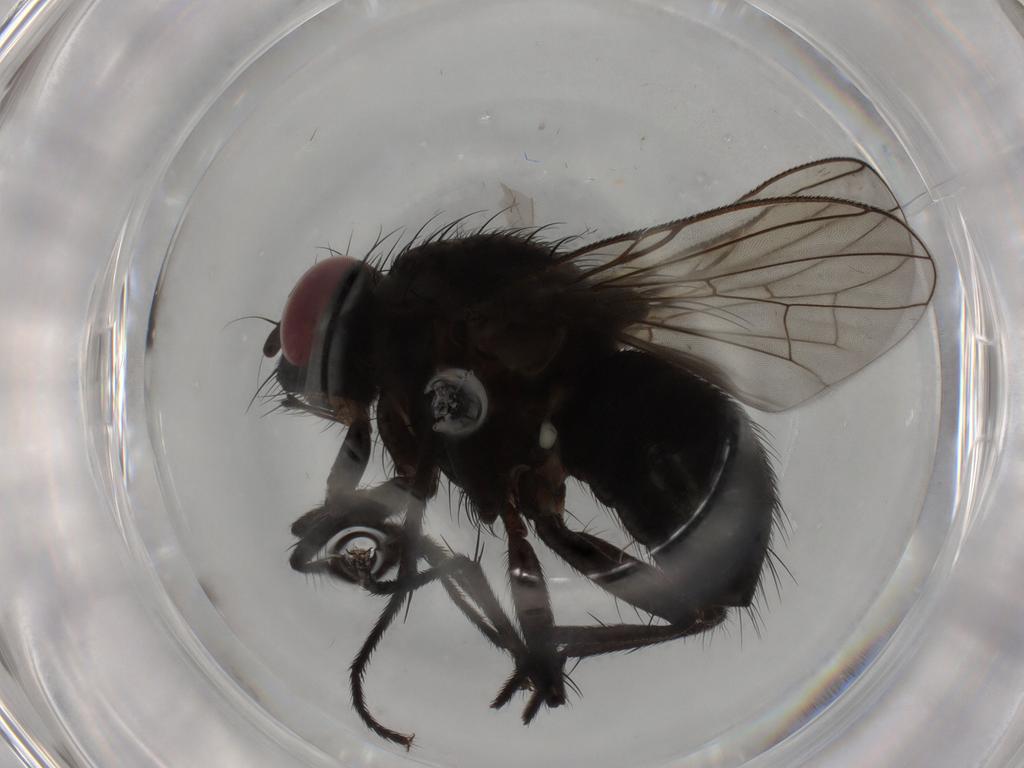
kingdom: Animalia
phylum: Arthropoda
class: Insecta
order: Diptera
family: Muscidae
